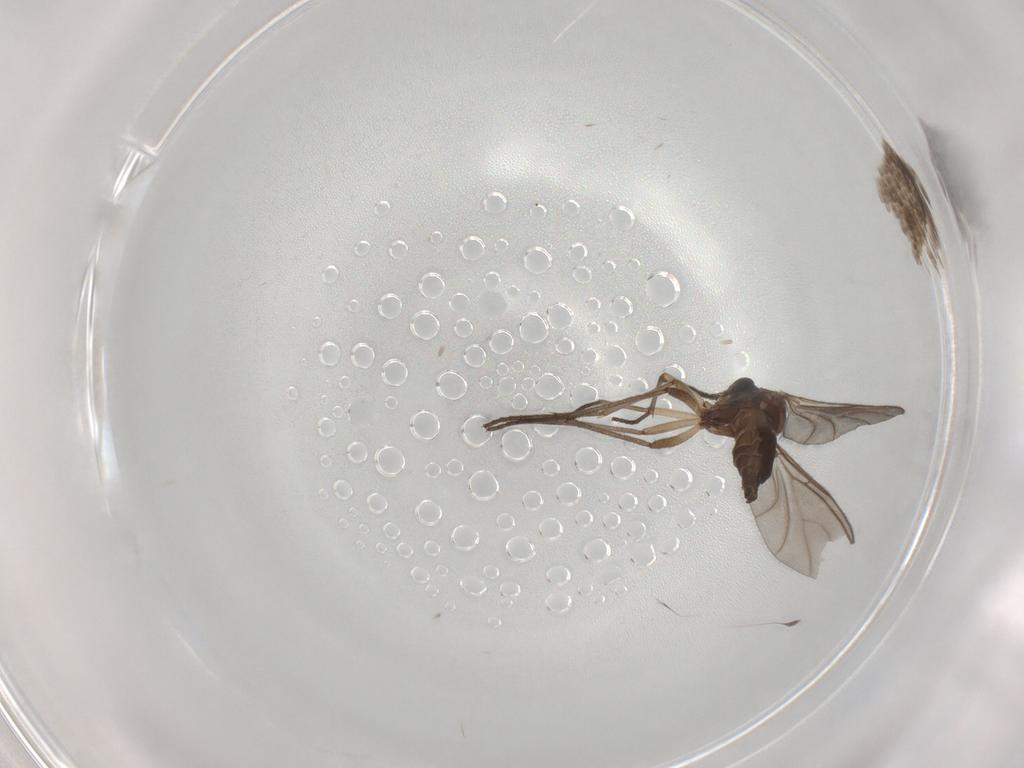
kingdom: Animalia
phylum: Arthropoda
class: Insecta
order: Diptera
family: Sciaridae
